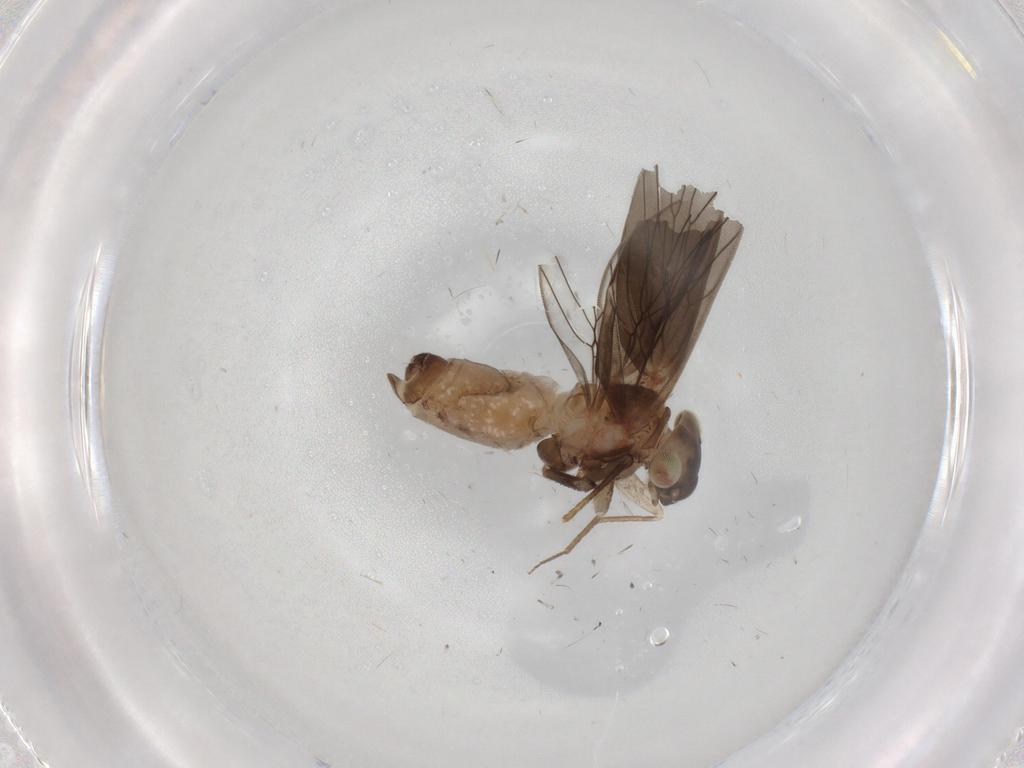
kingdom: Animalia
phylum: Arthropoda
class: Insecta
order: Psocodea
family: Lepidopsocidae
